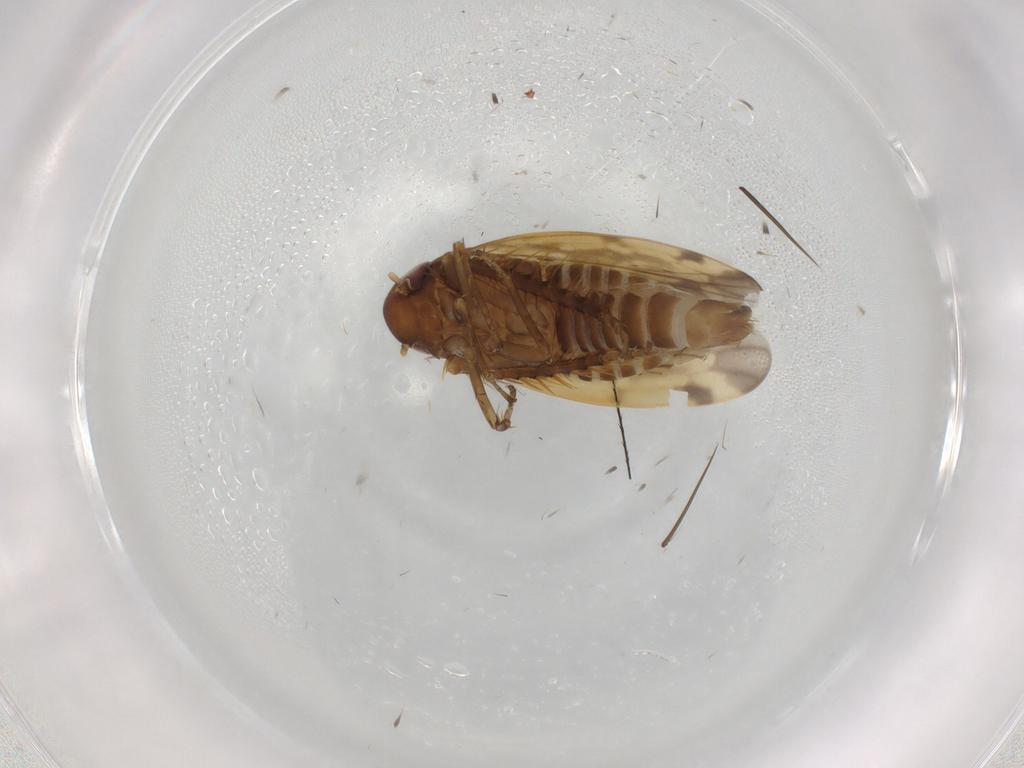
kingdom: Animalia
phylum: Arthropoda
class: Insecta
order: Hemiptera
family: Cicadellidae
